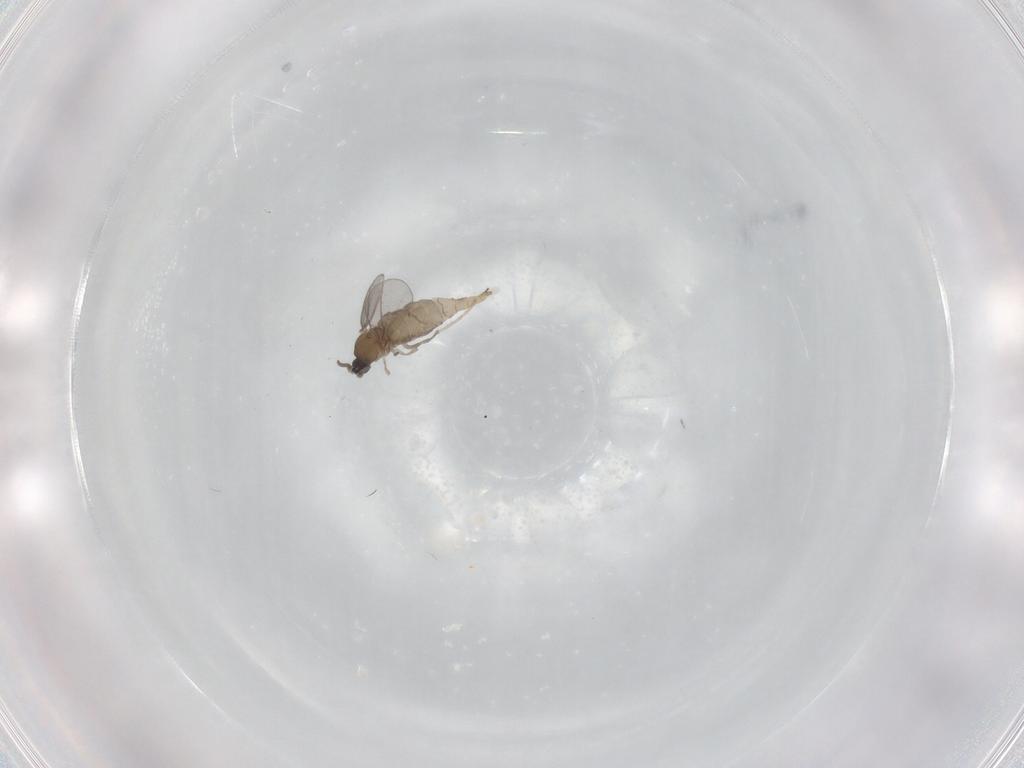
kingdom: Animalia
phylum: Arthropoda
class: Insecta
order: Diptera
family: Cecidomyiidae
